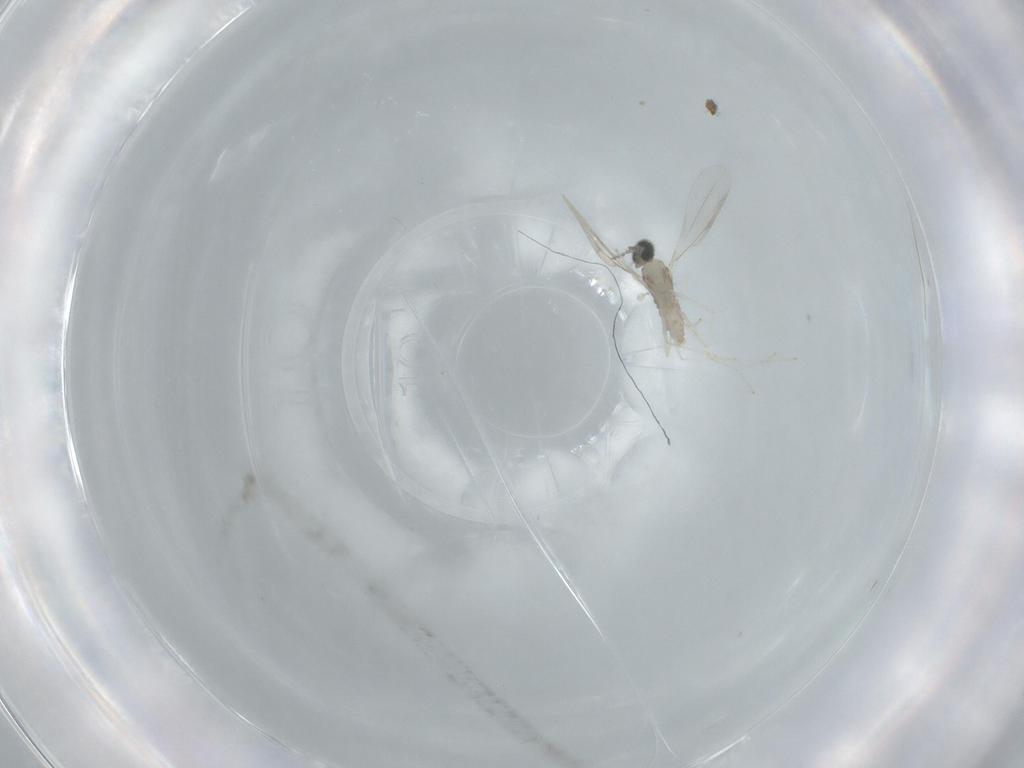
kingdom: Animalia
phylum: Arthropoda
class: Insecta
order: Diptera
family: Cecidomyiidae
